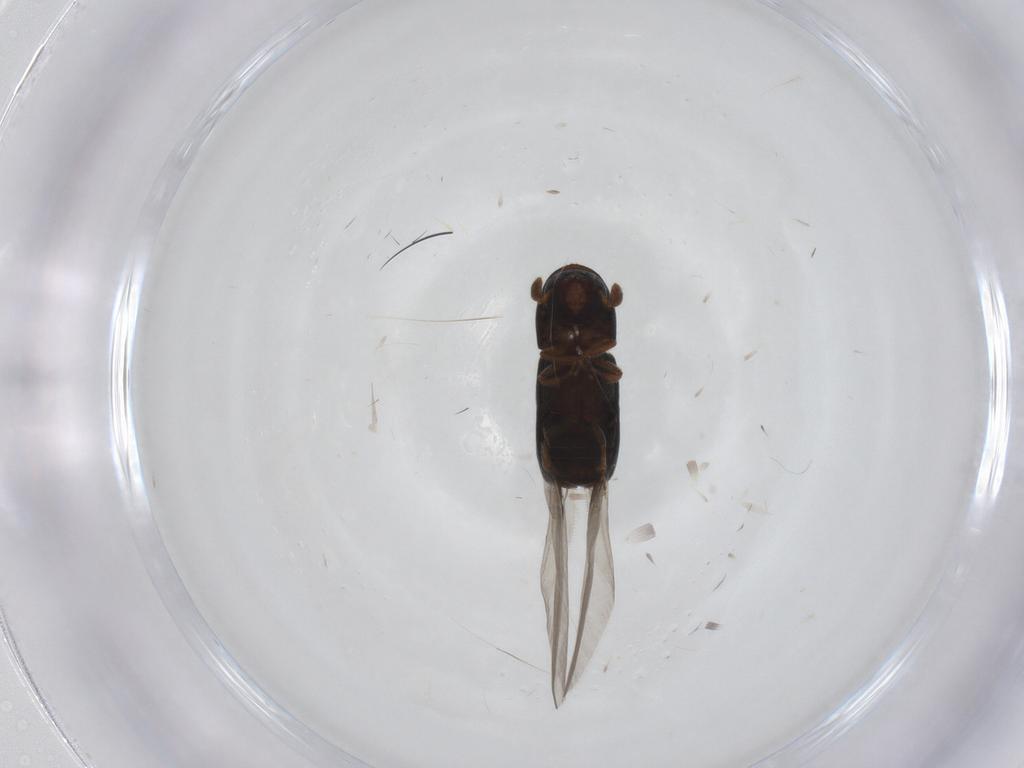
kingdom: Animalia
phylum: Arthropoda
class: Insecta
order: Coleoptera
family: Curculionidae
